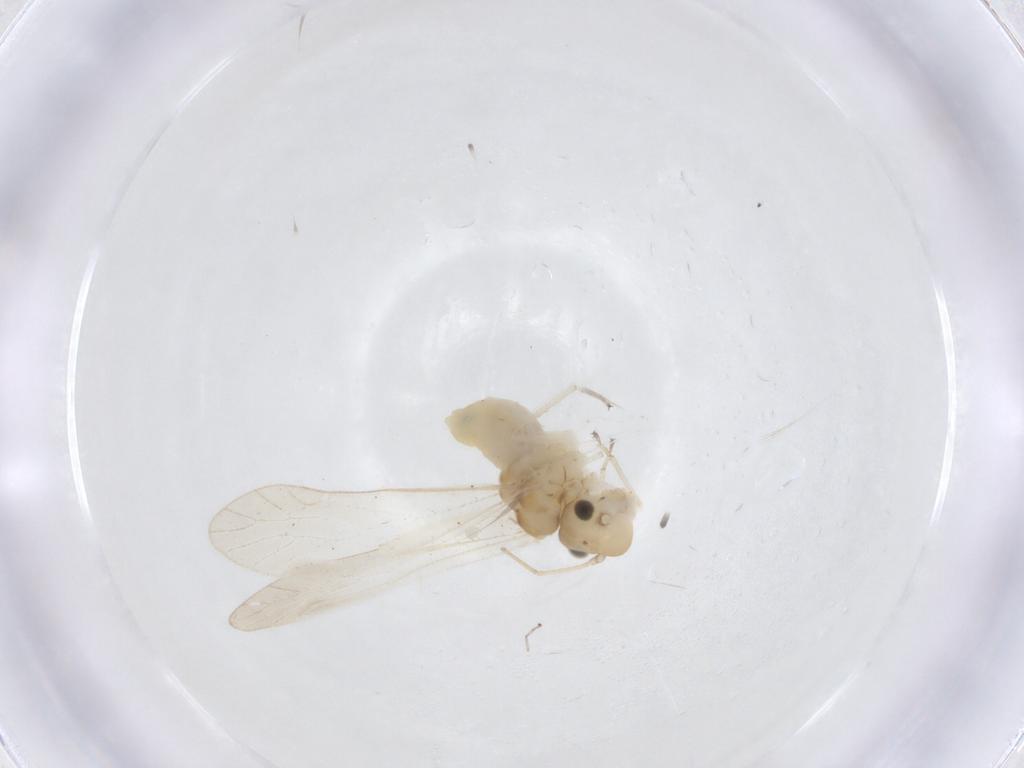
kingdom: Animalia
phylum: Arthropoda
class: Insecta
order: Psocodea
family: Caeciliusidae
